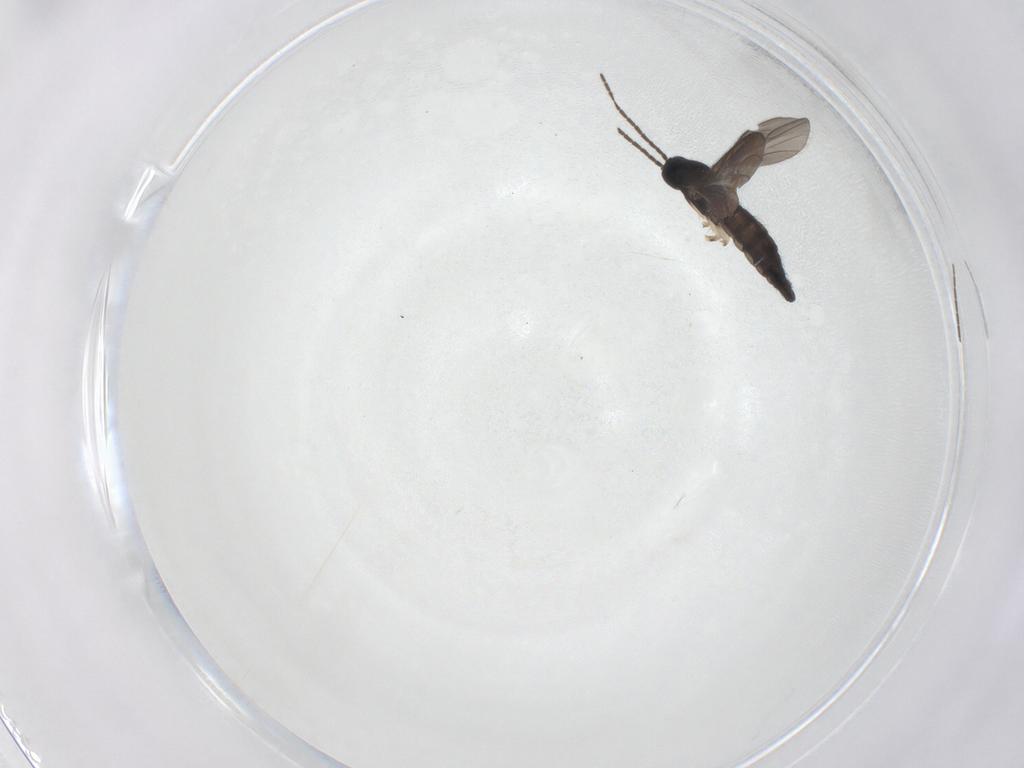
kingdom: Animalia
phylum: Arthropoda
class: Insecta
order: Diptera
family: Sciaridae
